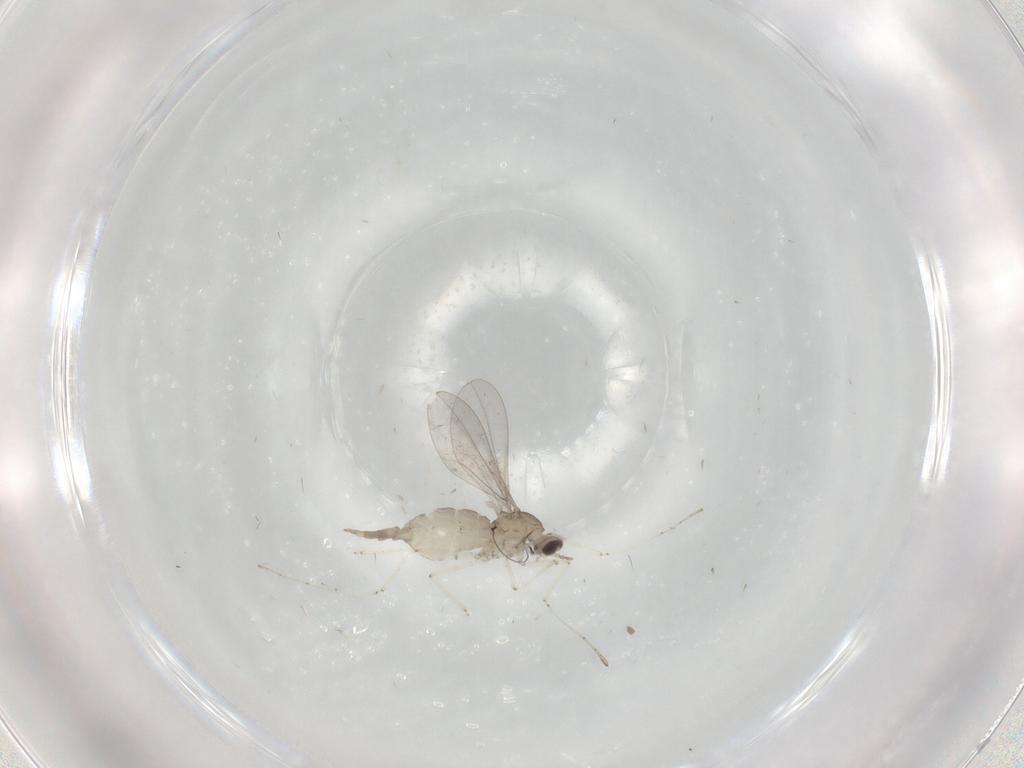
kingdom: Animalia
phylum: Arthropoda
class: Insecta
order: Diptera
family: Cecidomyiidae
